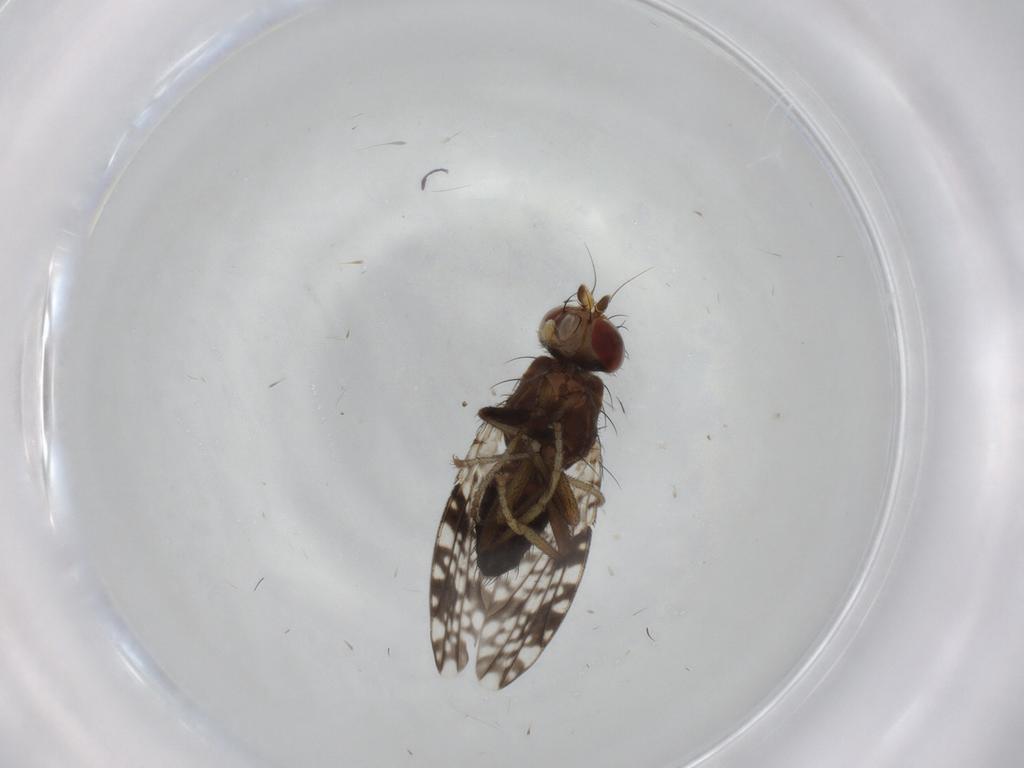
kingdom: Animalia
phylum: Arthropoda
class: Insecta
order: Diptera
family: Tephritidae
